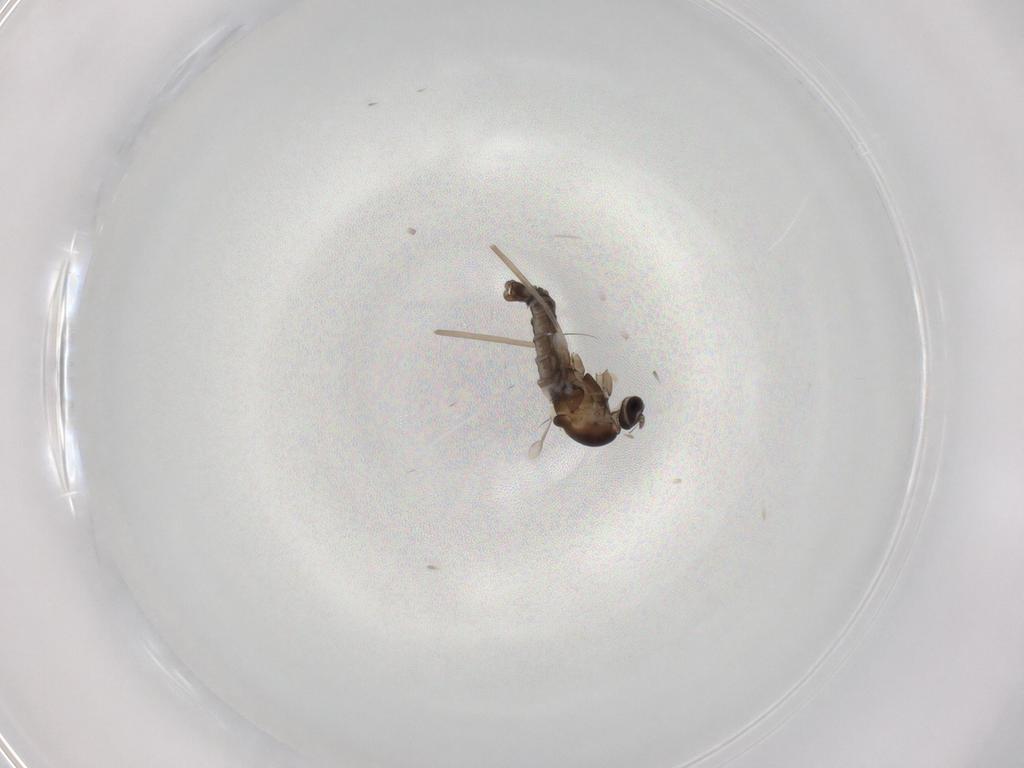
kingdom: Animalia
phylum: Arthropoda
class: Insecta
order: Diptera
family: Cecidomyiidae
